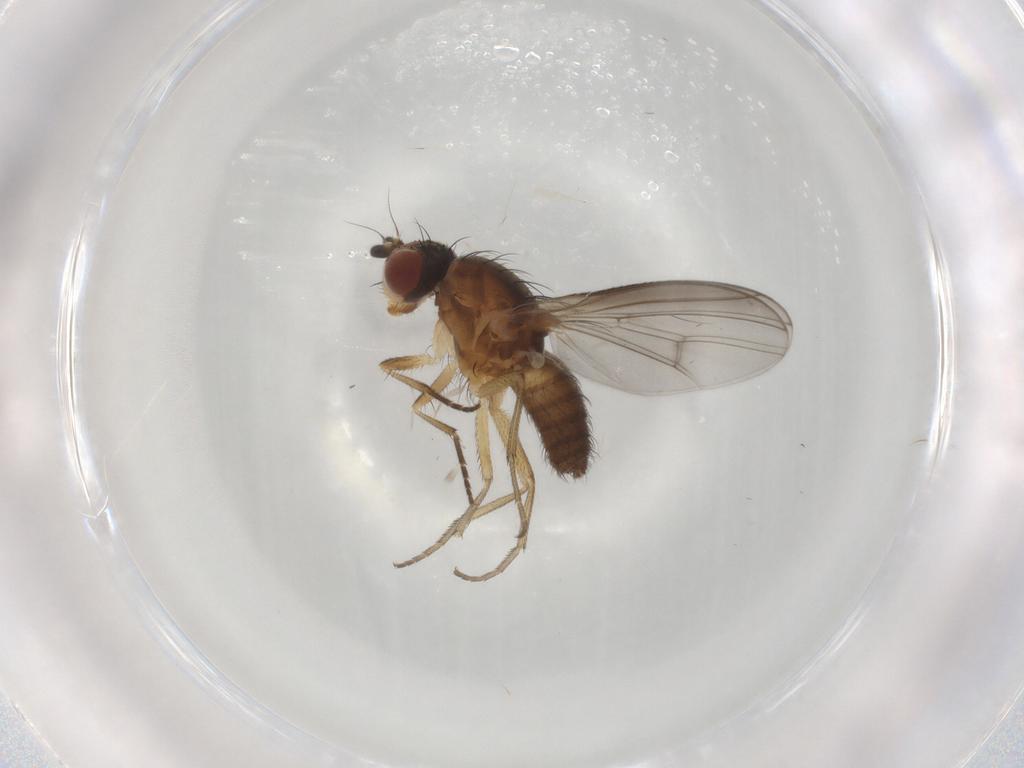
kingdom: Animalia
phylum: Arthropoda
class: Insecta
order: Diptera
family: Heleomyzidae
